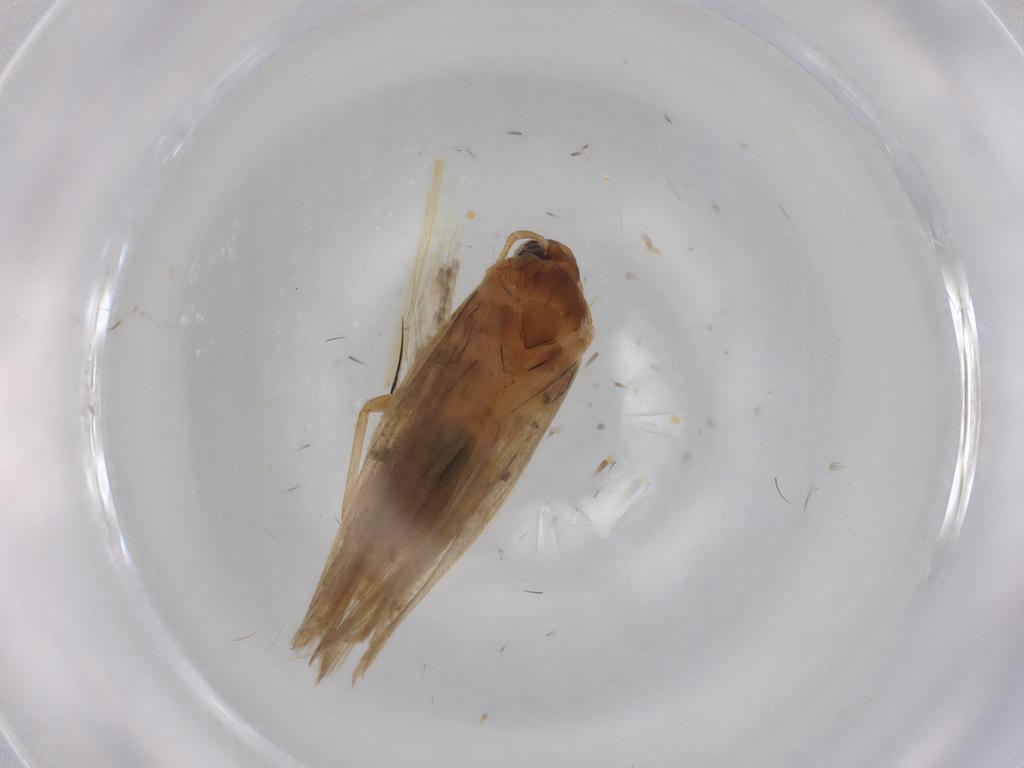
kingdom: Animalia
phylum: Arthropoda
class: Insecta
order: Lepidoptera
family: Gelechiidae
